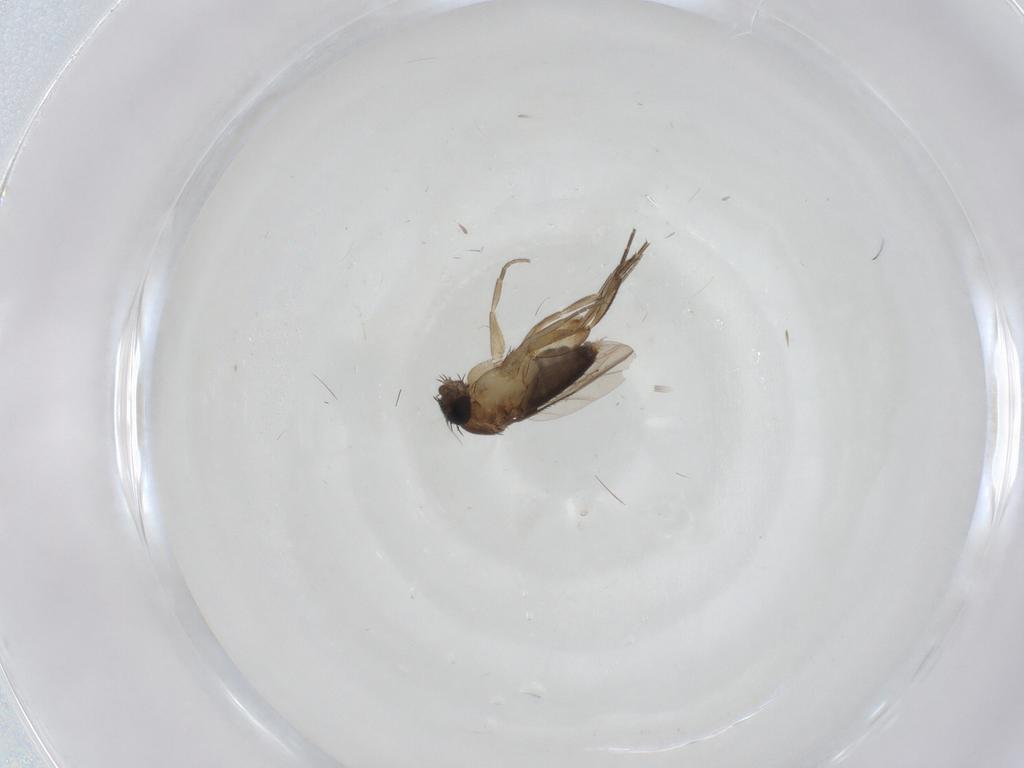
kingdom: Animalia
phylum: Arthropoda
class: Insecta
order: Diptera
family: Phoridae
